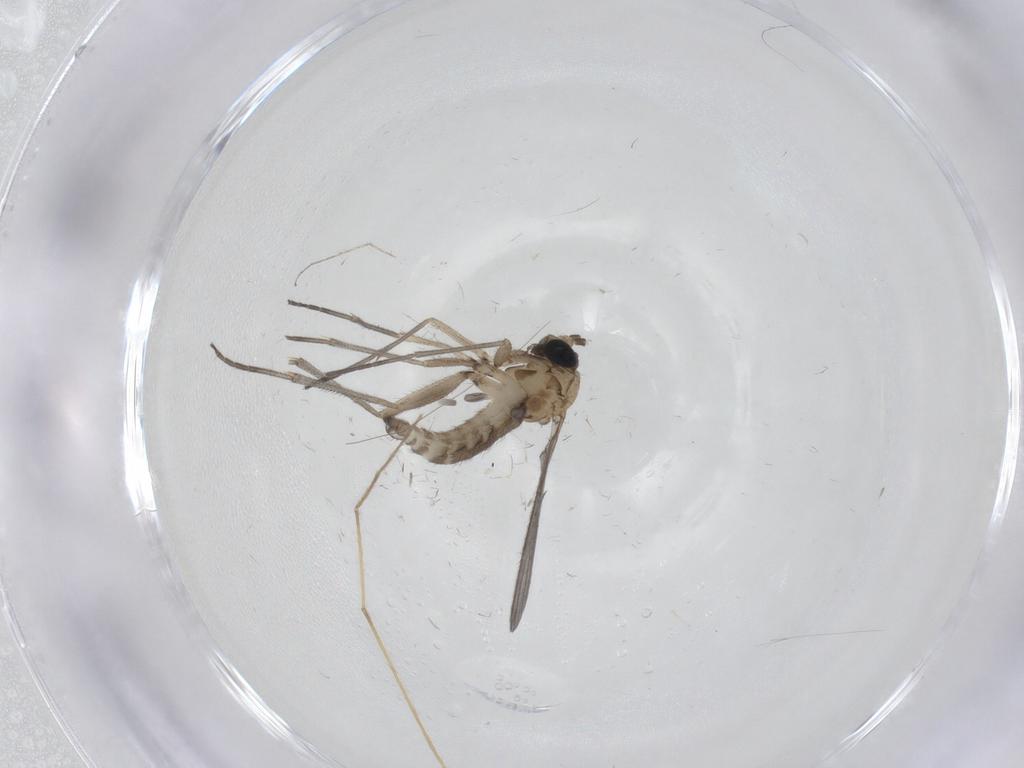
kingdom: Animalia
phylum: Arthropoda
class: Insecta
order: Diptera
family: Sciaridae
